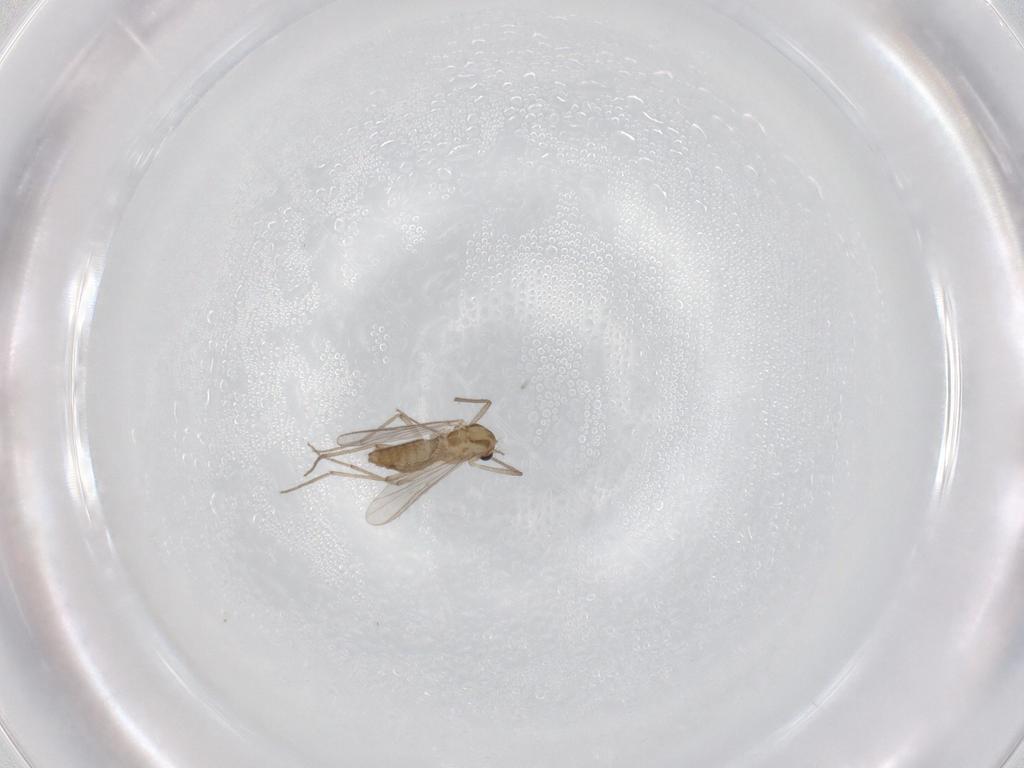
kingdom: Animalia
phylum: Arthropoda
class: Insecta
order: Diptera
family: Chironomidae
